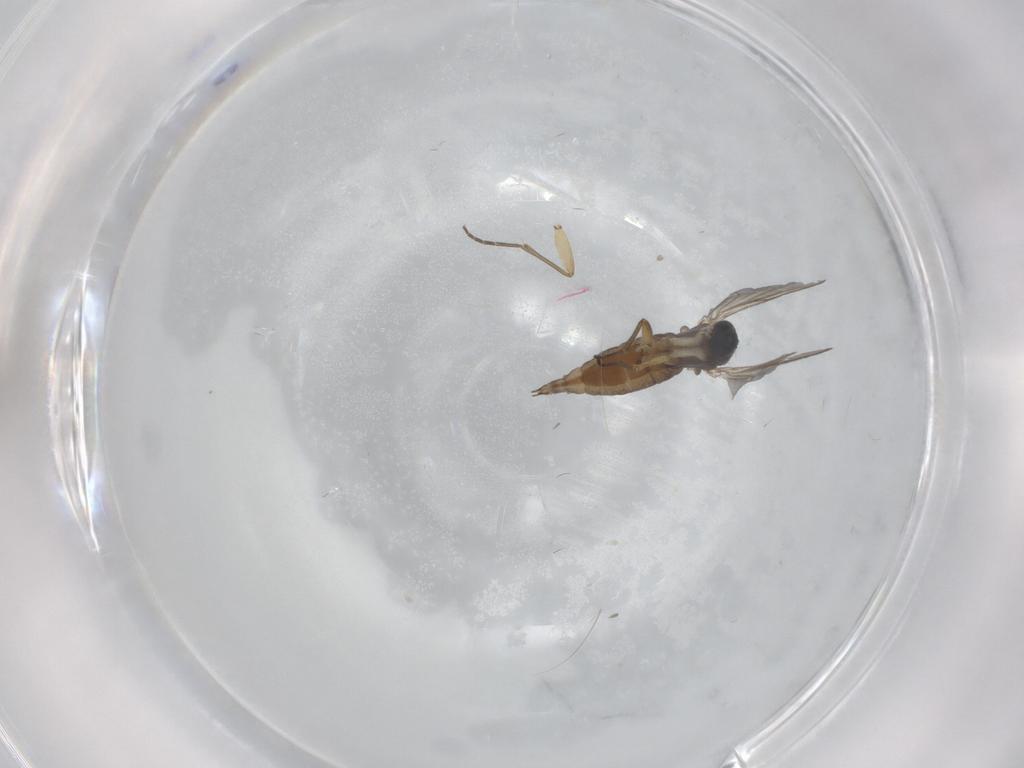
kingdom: Animalia
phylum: Arthropoda
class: Insecta
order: Diptera
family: Sciaridae
